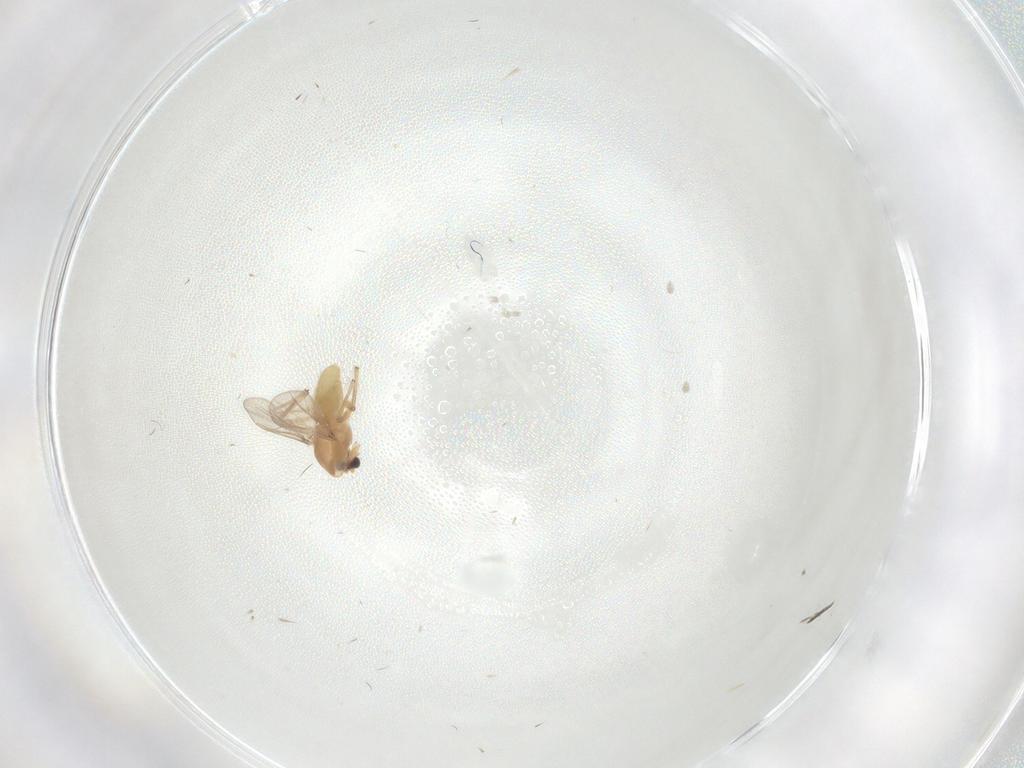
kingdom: Animalia
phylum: Arthropoda
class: Insecta
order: Diptera
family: Chironomidae
